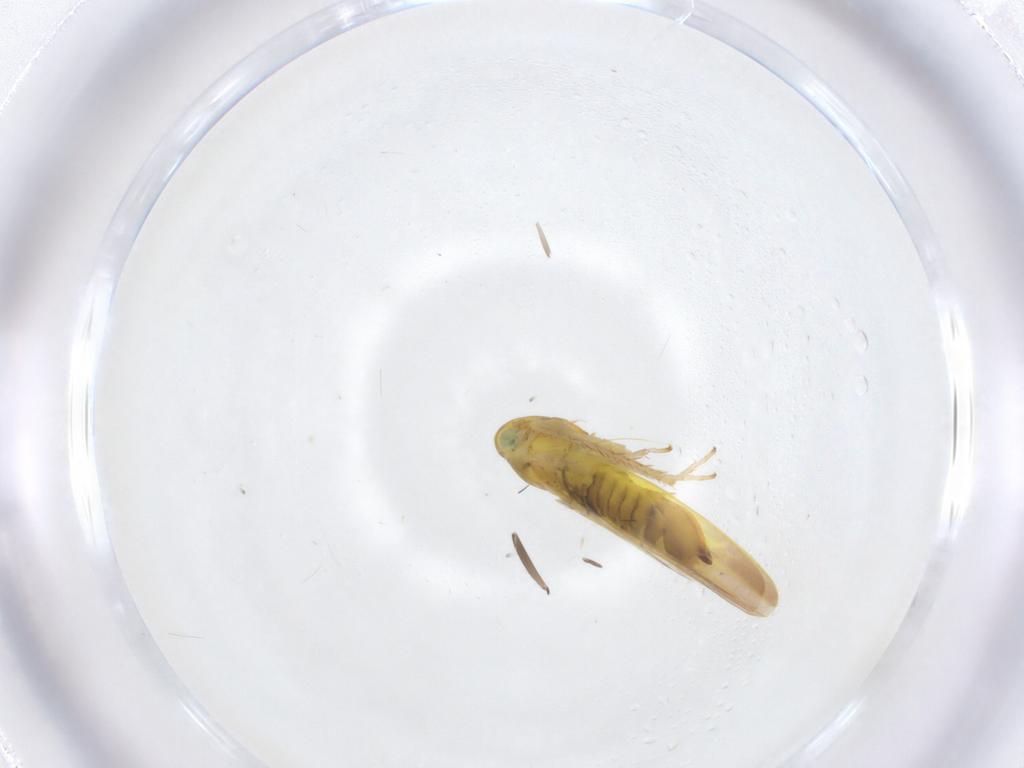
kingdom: Animalia
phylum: Arthropoda
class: Insecta
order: Hemiptera
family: Cicadellidae
